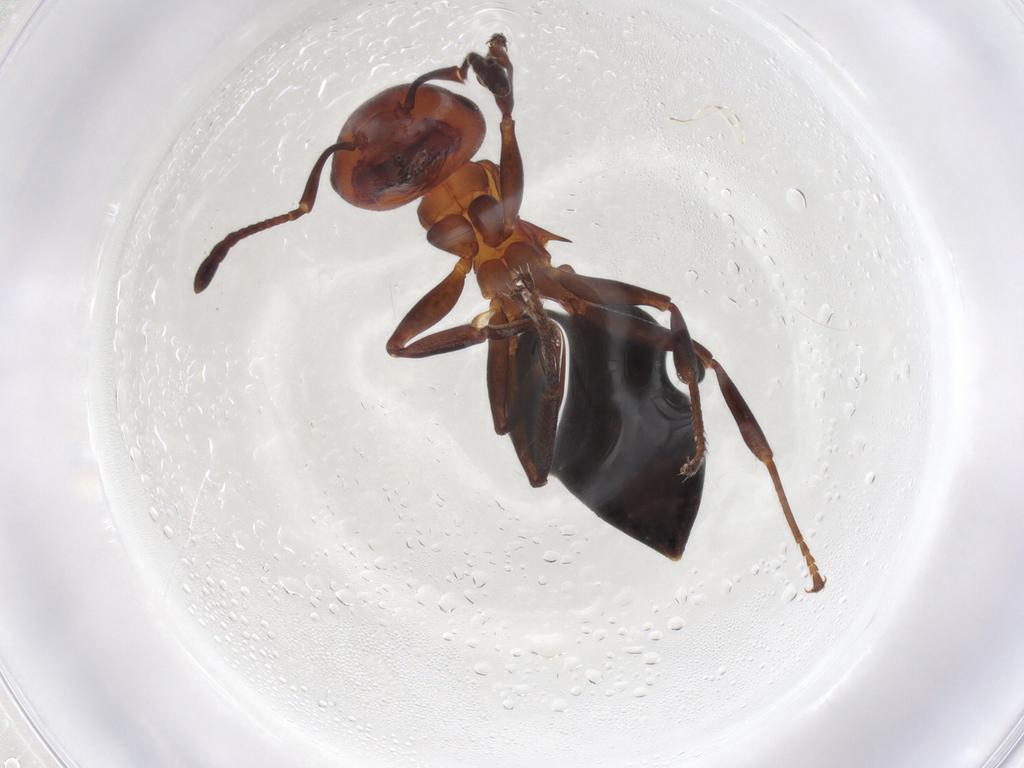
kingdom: Animalia
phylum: Arthropoda
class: Insecta
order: Hymenoptera
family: Formicidae
